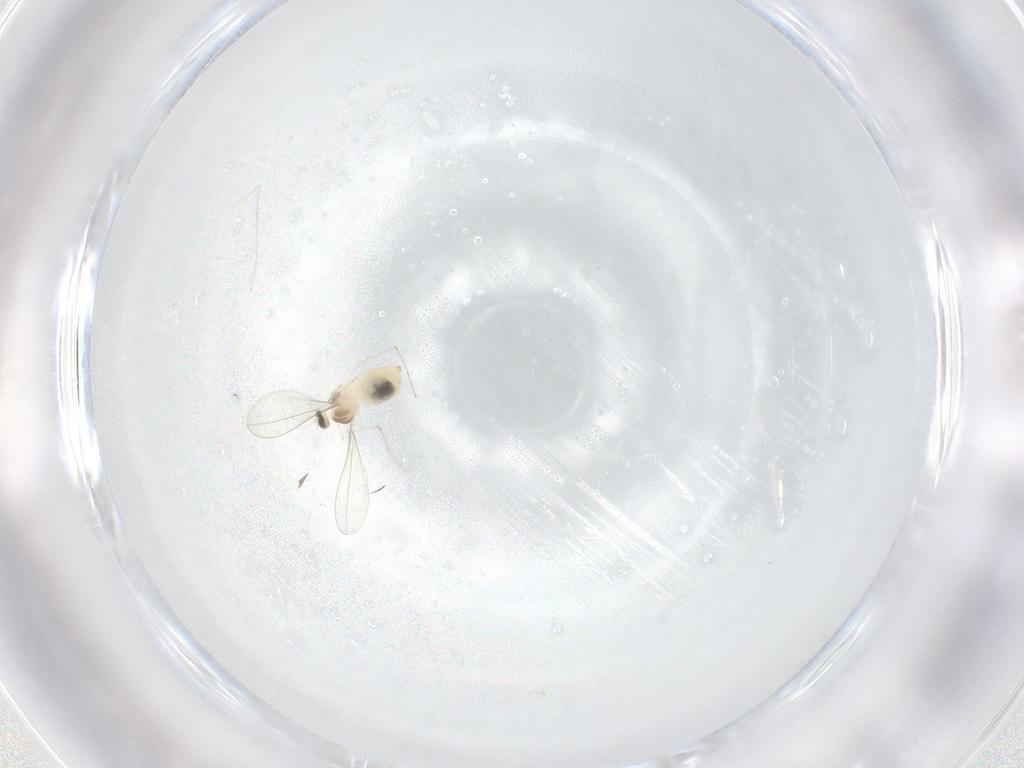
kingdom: Animalia
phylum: Arthropoda
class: Insecta
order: Diptera
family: Cecidomyiidae
